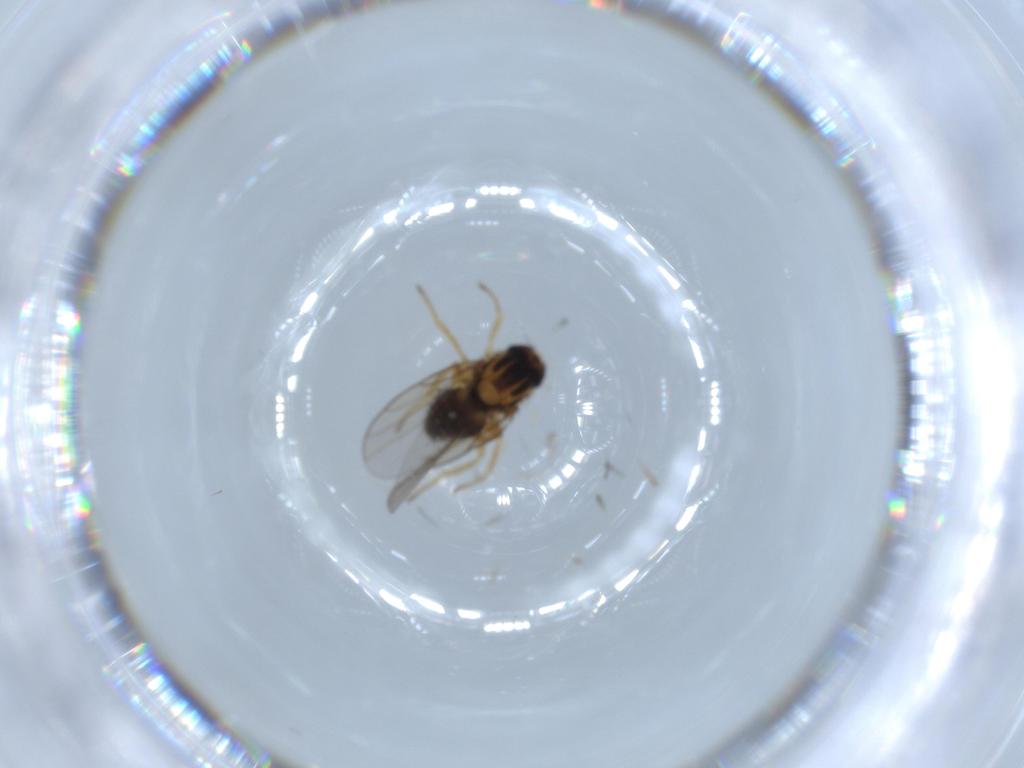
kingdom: Animalia
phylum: Arthropoda
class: Insecta
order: Diptera
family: Chloropidae
